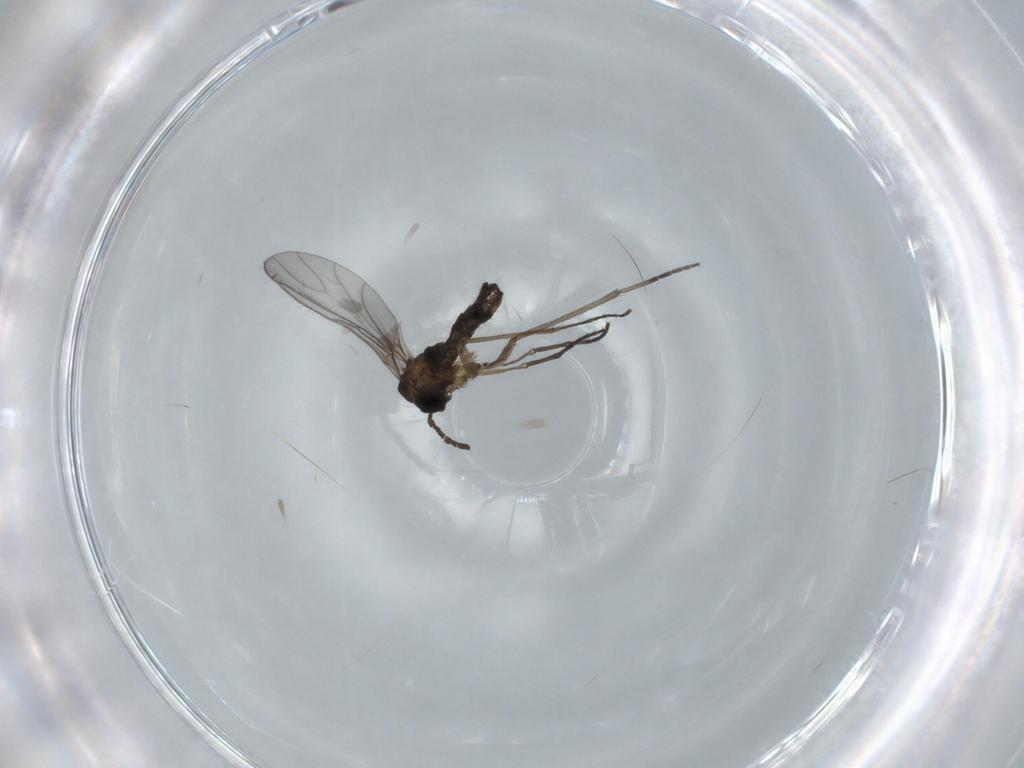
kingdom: Animalia
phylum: Arthropoda
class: Insecta
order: Diptera
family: Sciaridae
